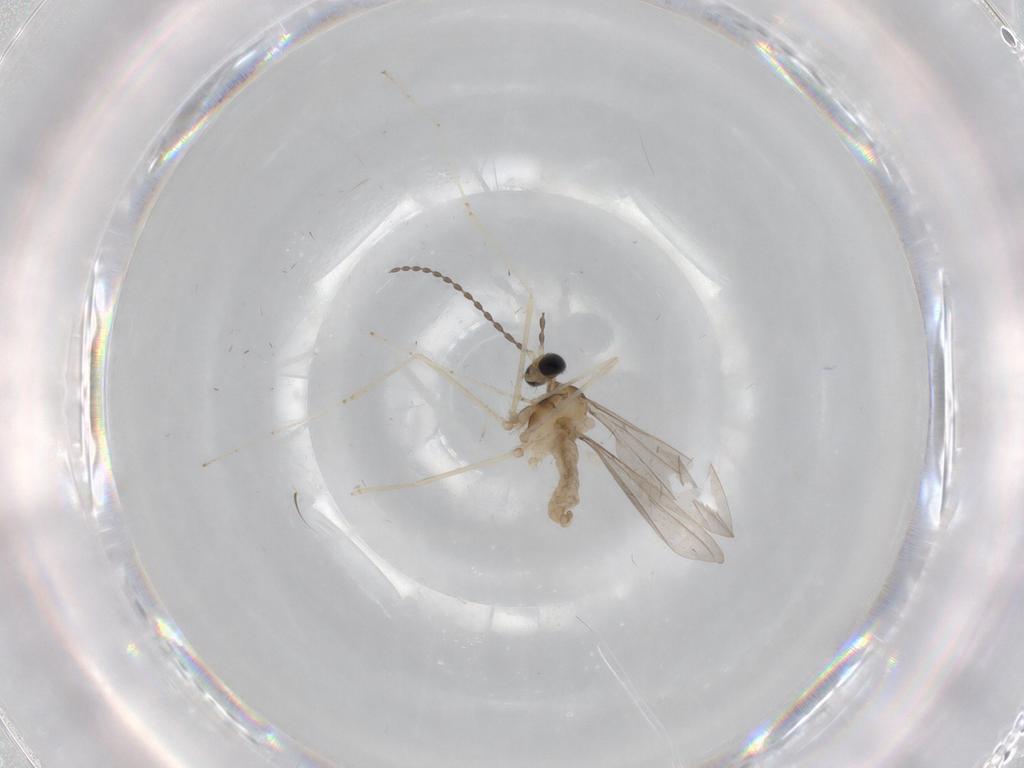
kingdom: Animalia
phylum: Arthropoda
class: Insecta
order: Diptera
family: Cecidomyiidae
